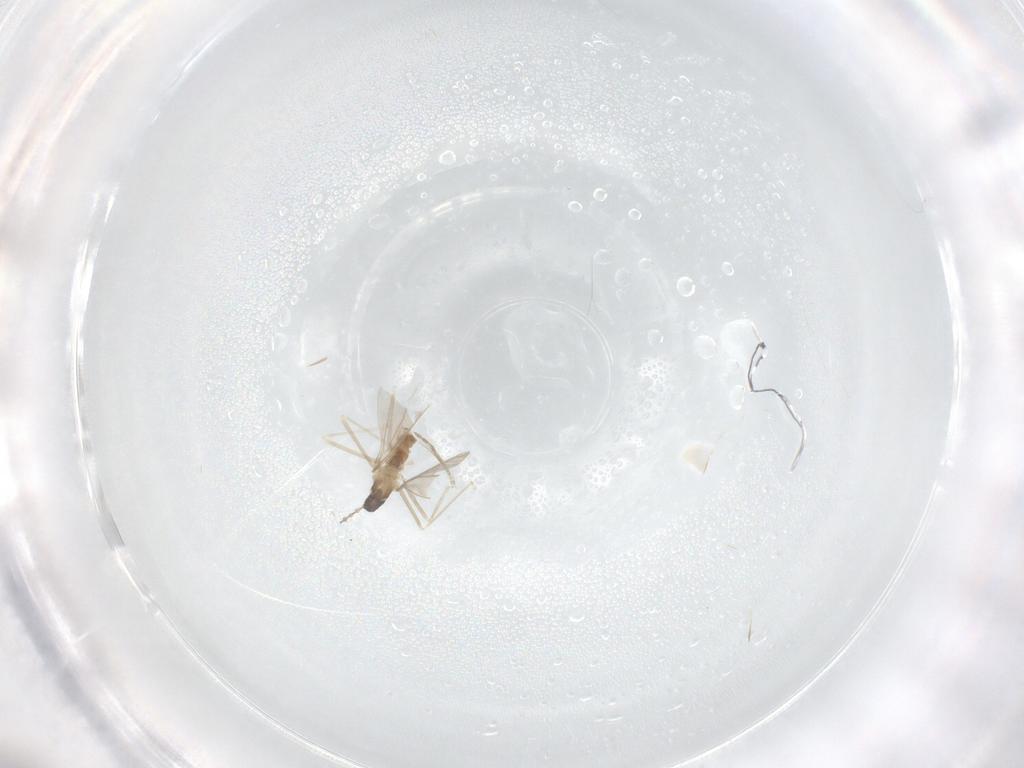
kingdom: Animalia
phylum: Arthropoda
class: Insecta
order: Diptera
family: Cecidomyiidae
